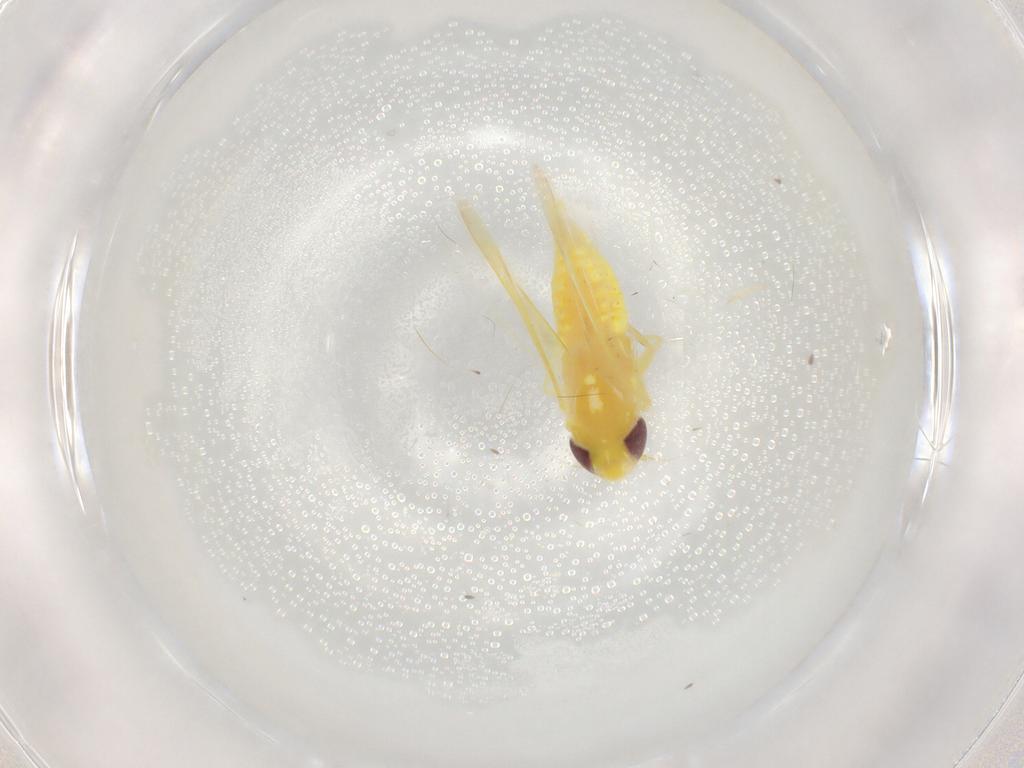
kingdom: Animalia
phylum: Arthropoda
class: Insecta
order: Hemiptera
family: Cicadellidae
